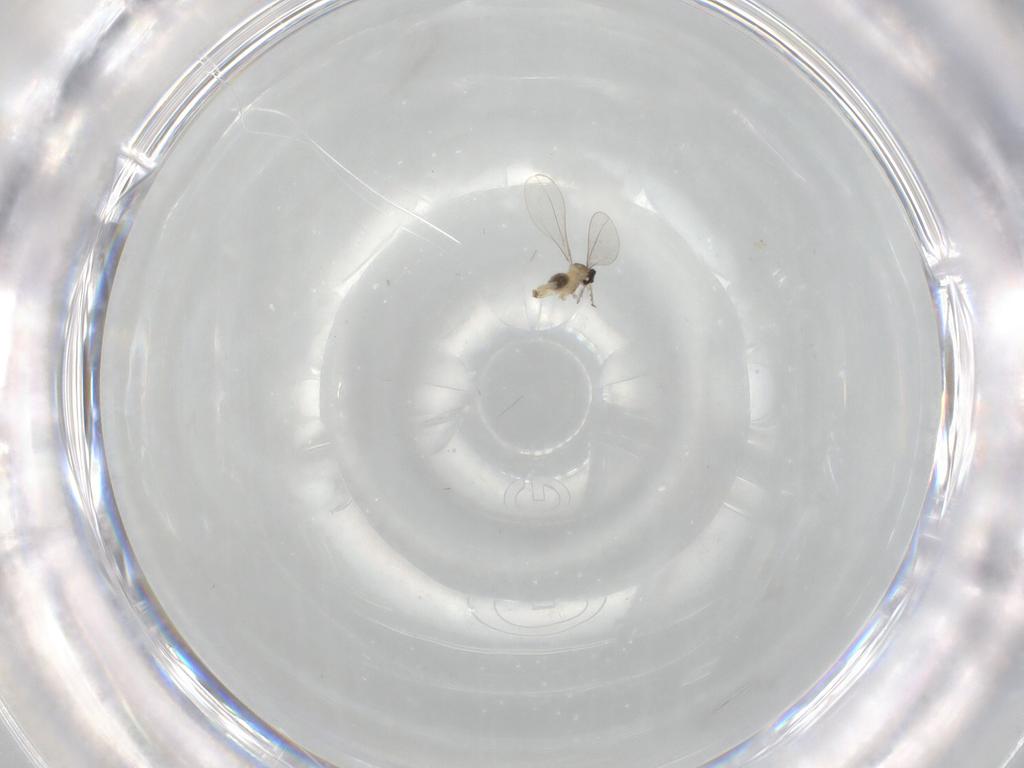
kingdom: Animalia
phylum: Arthropoda
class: Insecta
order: Diptera
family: Cecidomyiidae
